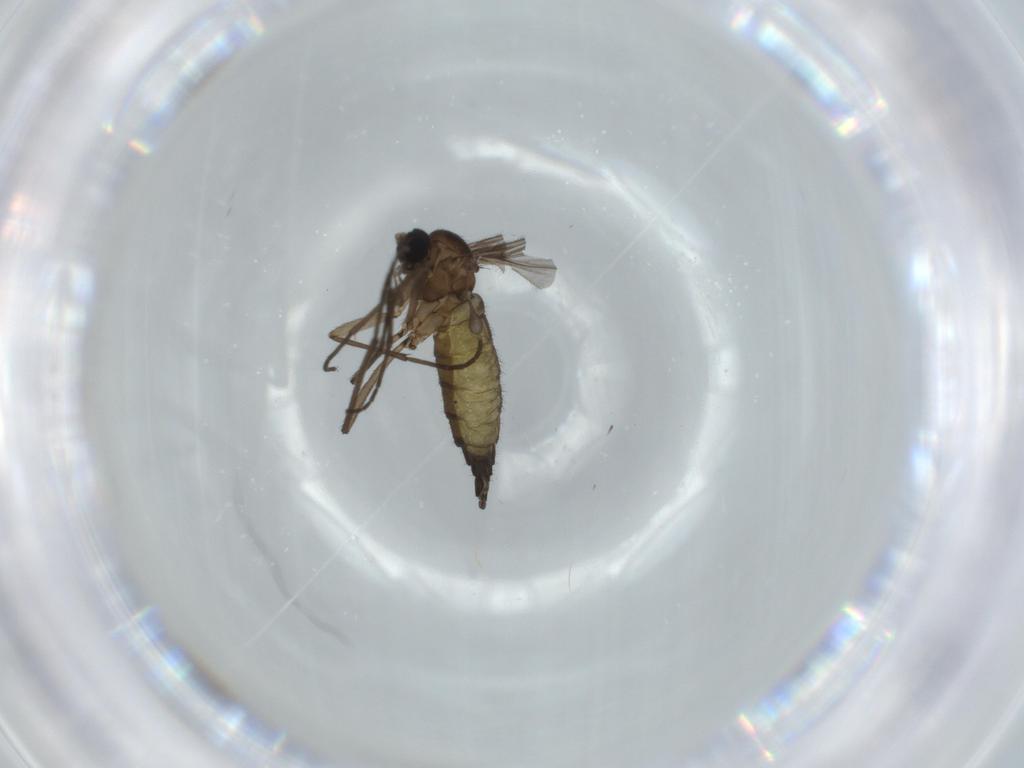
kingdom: Animalia
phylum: Arthropoda
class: Insecta
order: Diptera
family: Sciaridae
